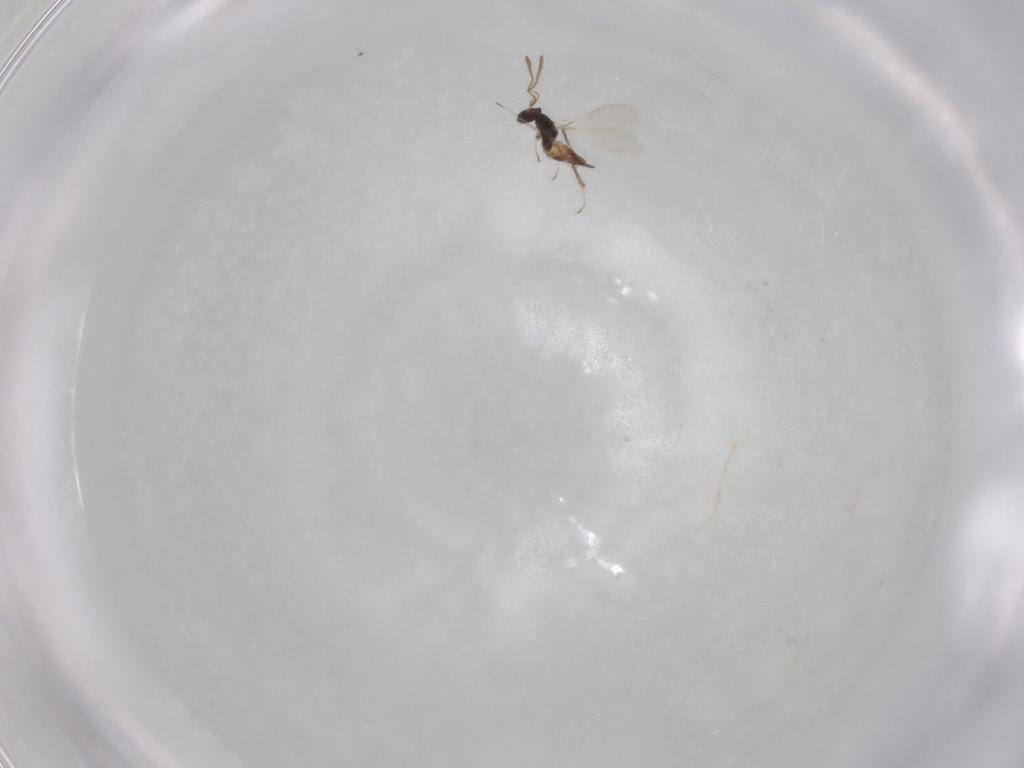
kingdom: Animalia
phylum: Arthropoda
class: Insecta
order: Hymenoptera
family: Mymaridae
